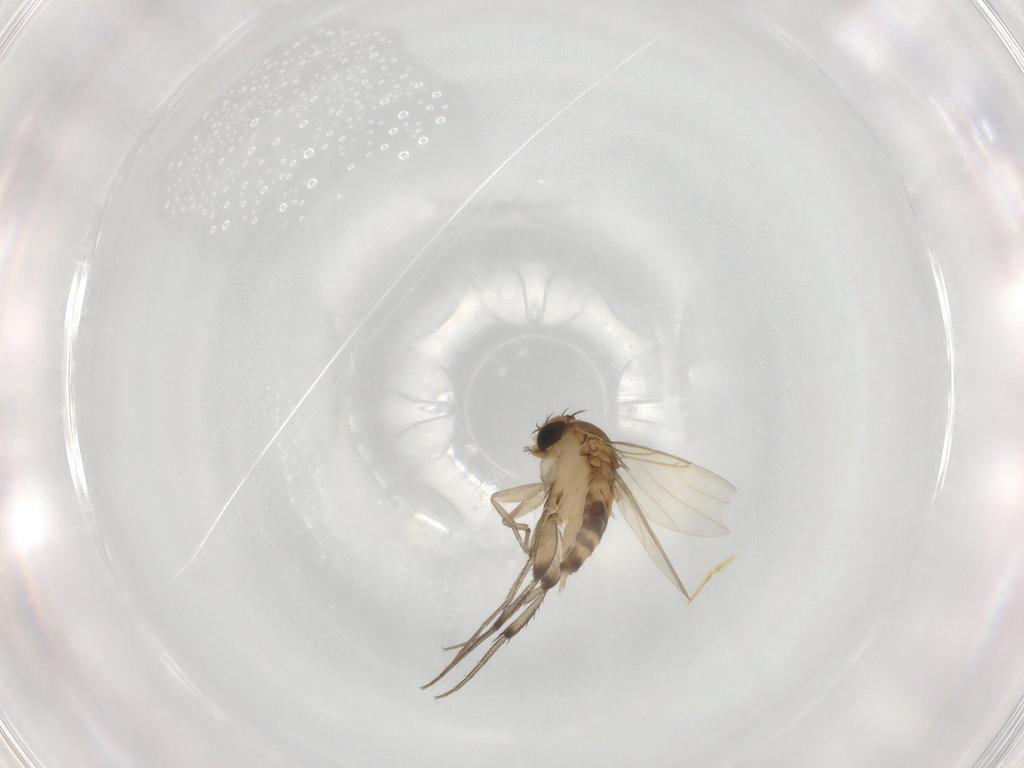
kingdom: Animalia
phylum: Arthropoda
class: Insecta
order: Diptera
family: Phoridae
